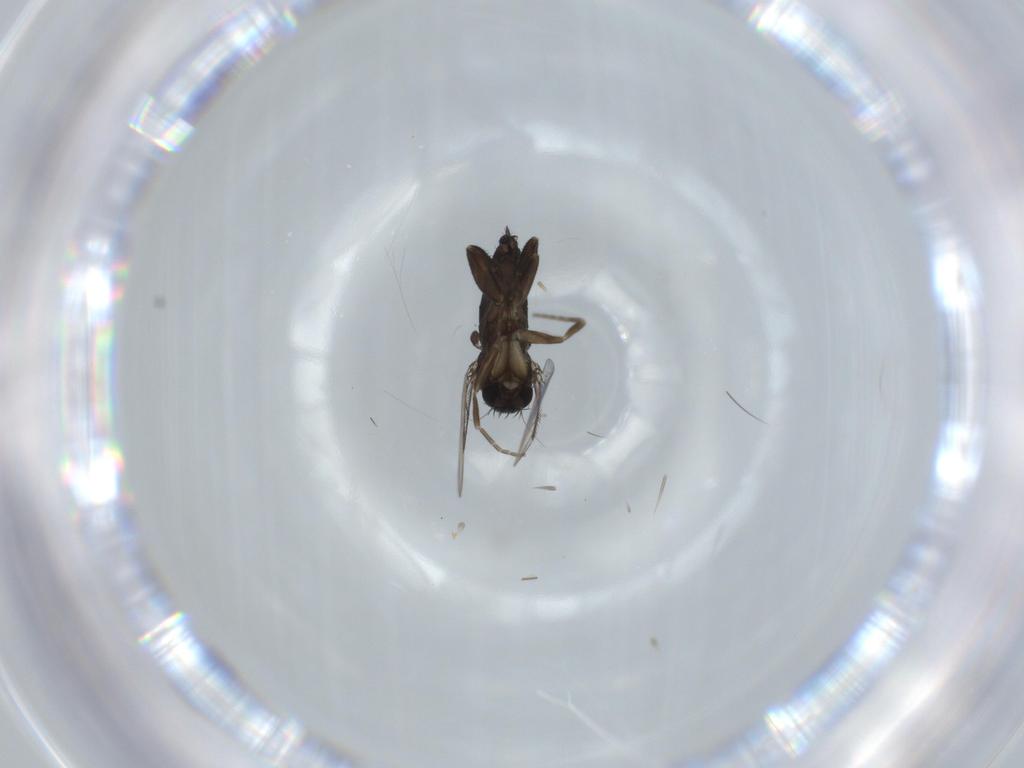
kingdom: Animalia
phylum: Arthropoda
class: Insecta
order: Diptera
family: Phoridae
